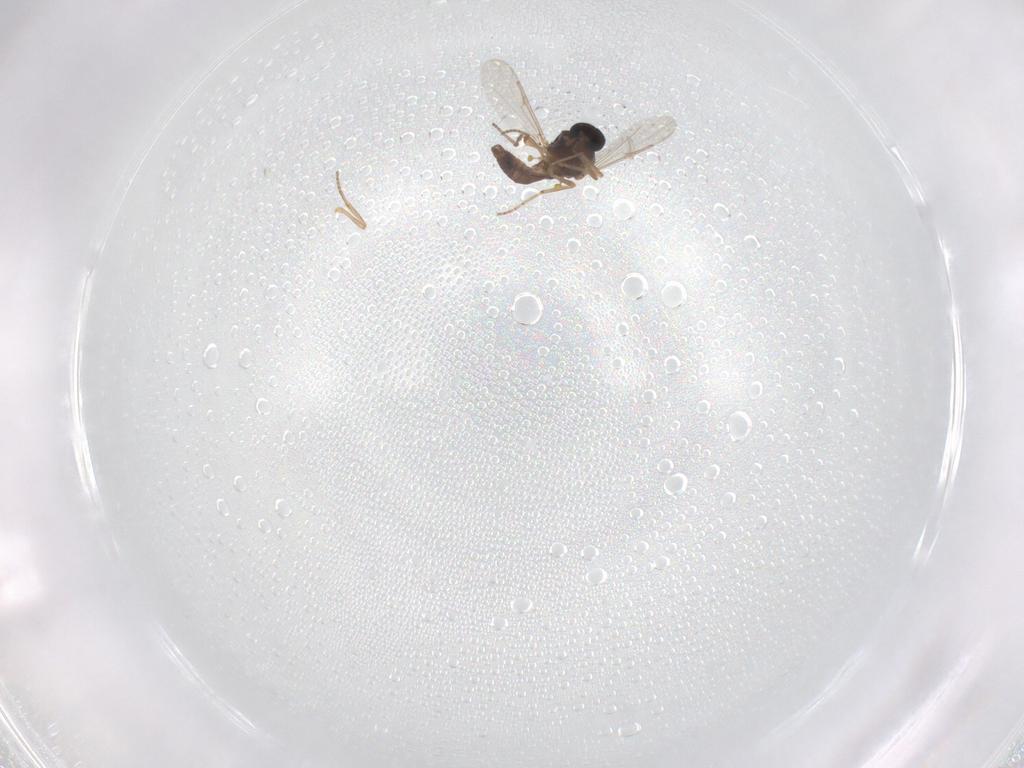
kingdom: Animalia
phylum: Arthropoda
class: Insecta
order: Diptera
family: Ceratopogonidae
